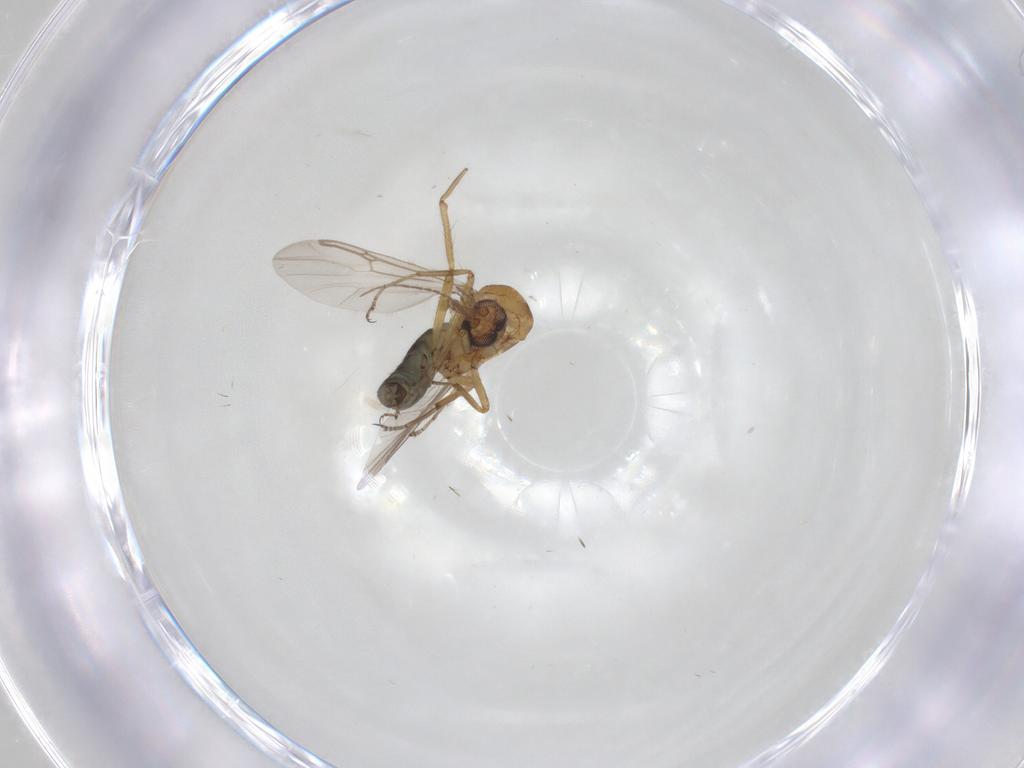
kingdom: Animalia
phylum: Arthropoda
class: Insecta
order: Diptera
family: Ceratopogonidae
